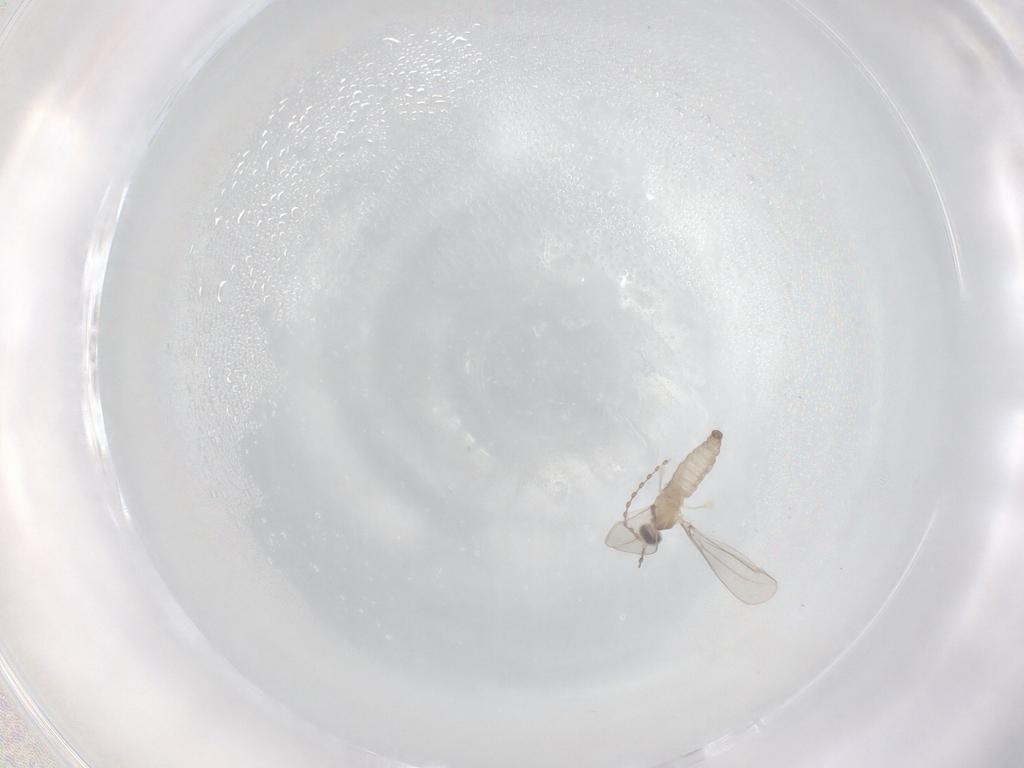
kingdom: Animalia
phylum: Arthropoda
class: Insecta
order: Diptera
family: Cecidomyiidae
